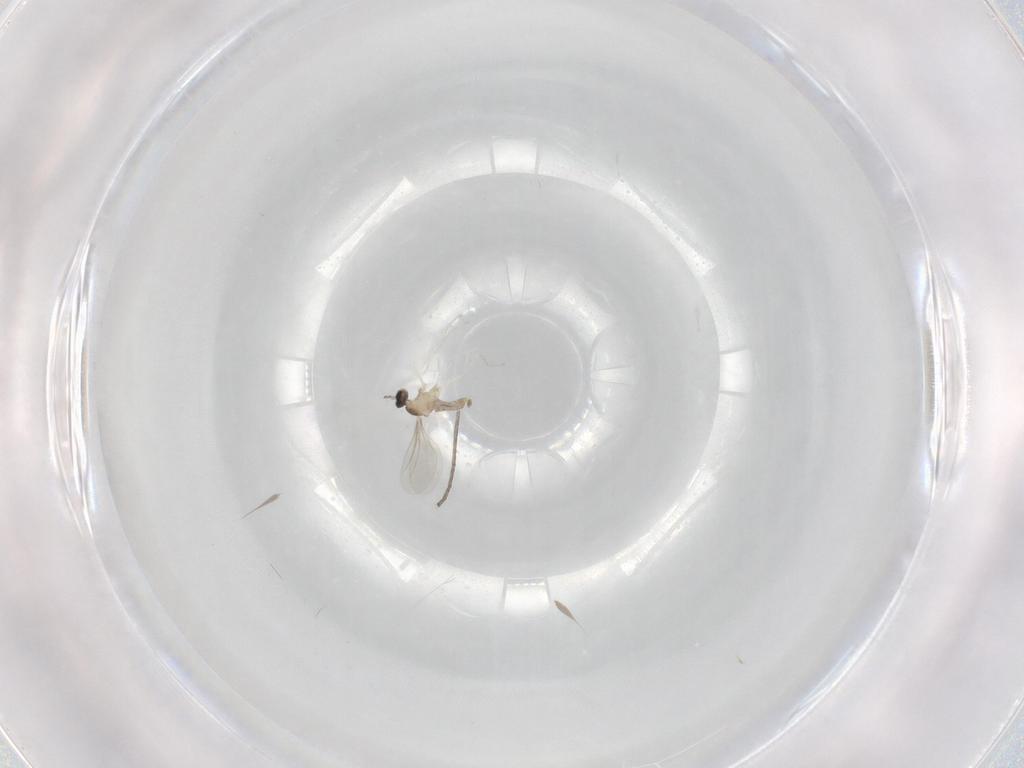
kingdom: Animalia
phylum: Arthropoda
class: Insecta
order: Diptera
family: Cecidomyiidae
